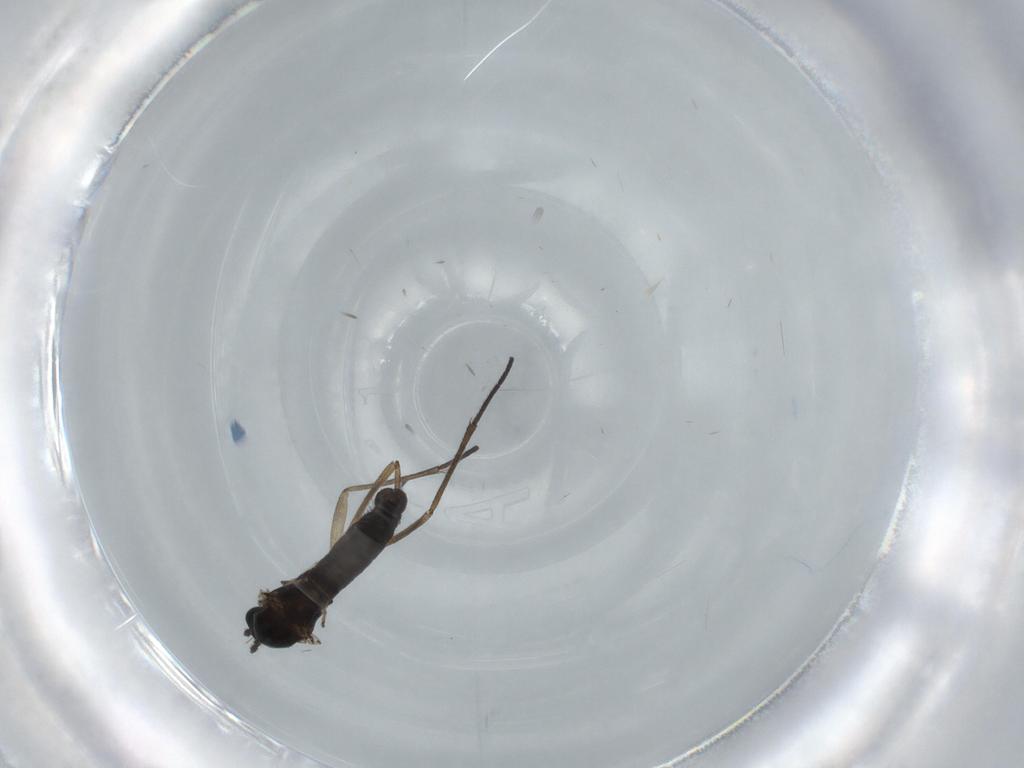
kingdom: Animalia
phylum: Arthropoda
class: Insecta
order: Diptera
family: Sciaridae
